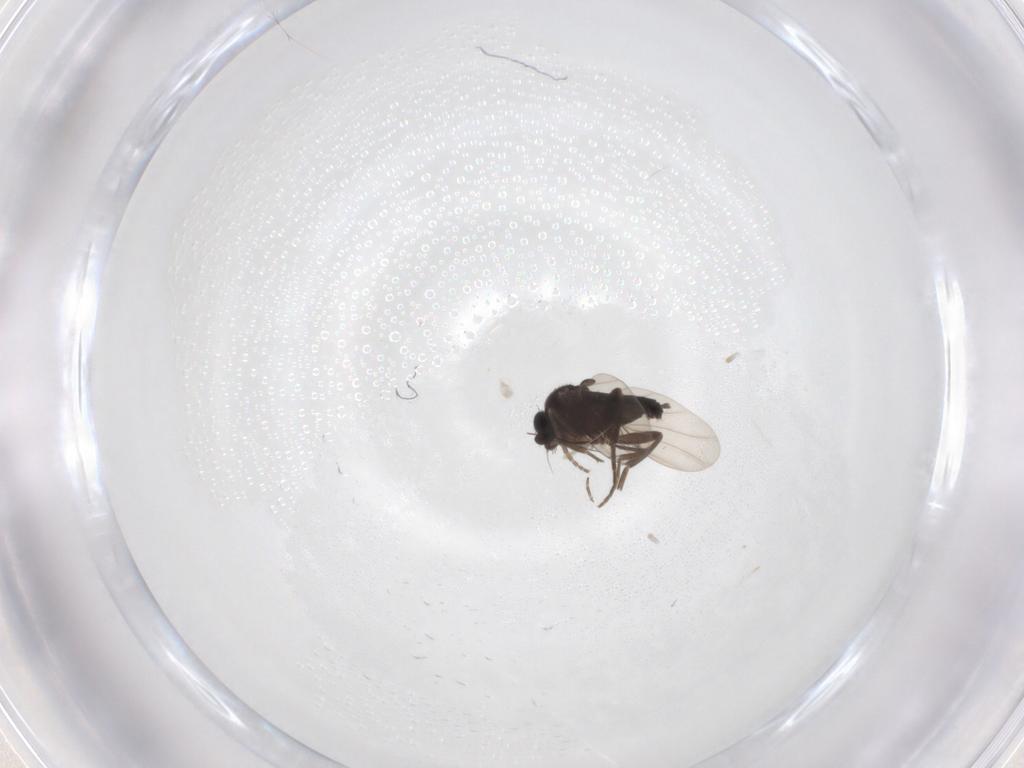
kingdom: Animalia
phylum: Arthropoda
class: Insecta
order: Diptera
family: Phoridae
